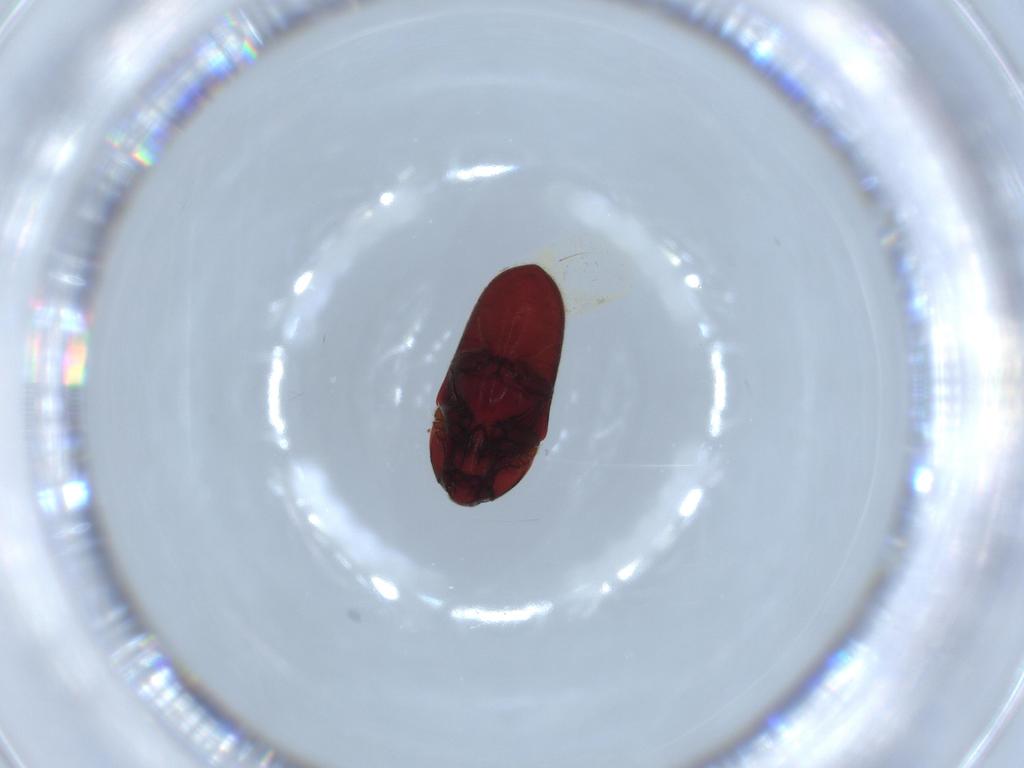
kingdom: Animalia
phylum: Arthropoda
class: Insecta
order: Coleoptera
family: Throscidae
